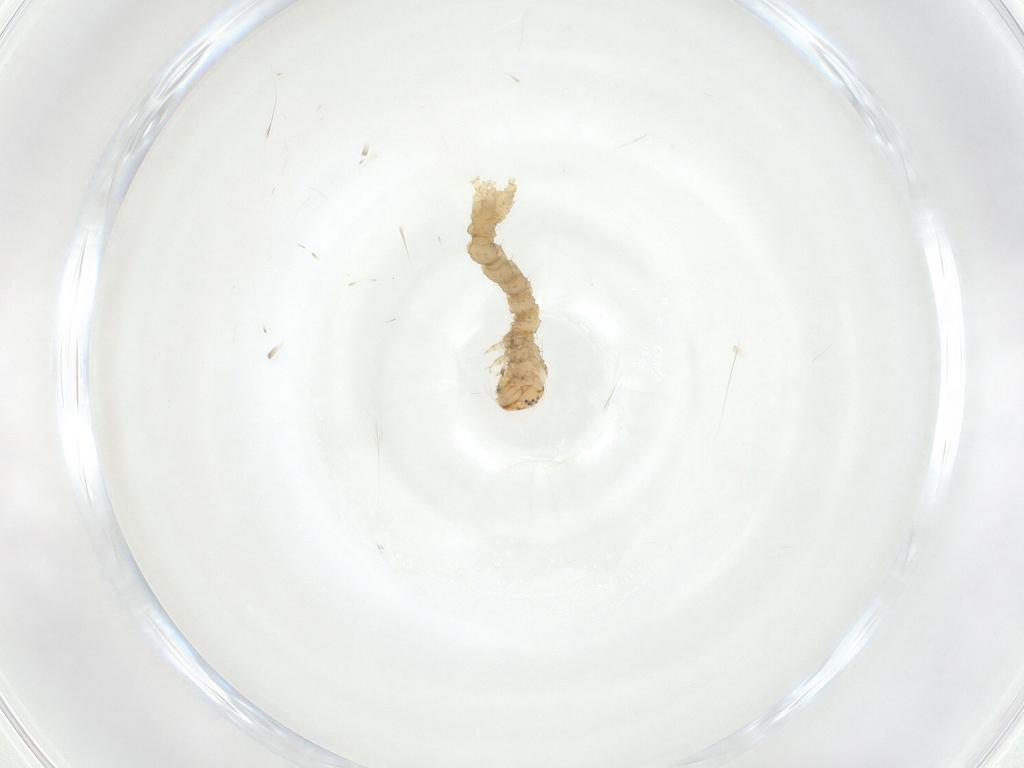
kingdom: Animalia
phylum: Arthropoda
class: Insecta
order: Lepidoptera
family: Geometridae
